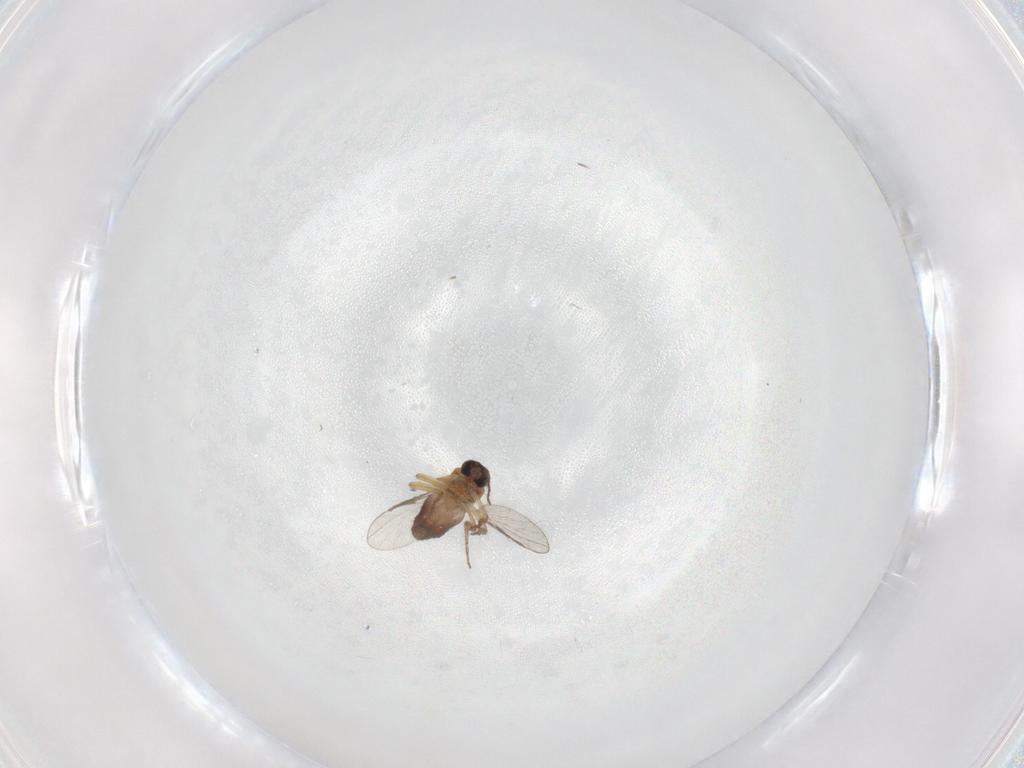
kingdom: Animalia
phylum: Arthropoda
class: Insecta
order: Diptera
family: Ceratopogonidae
